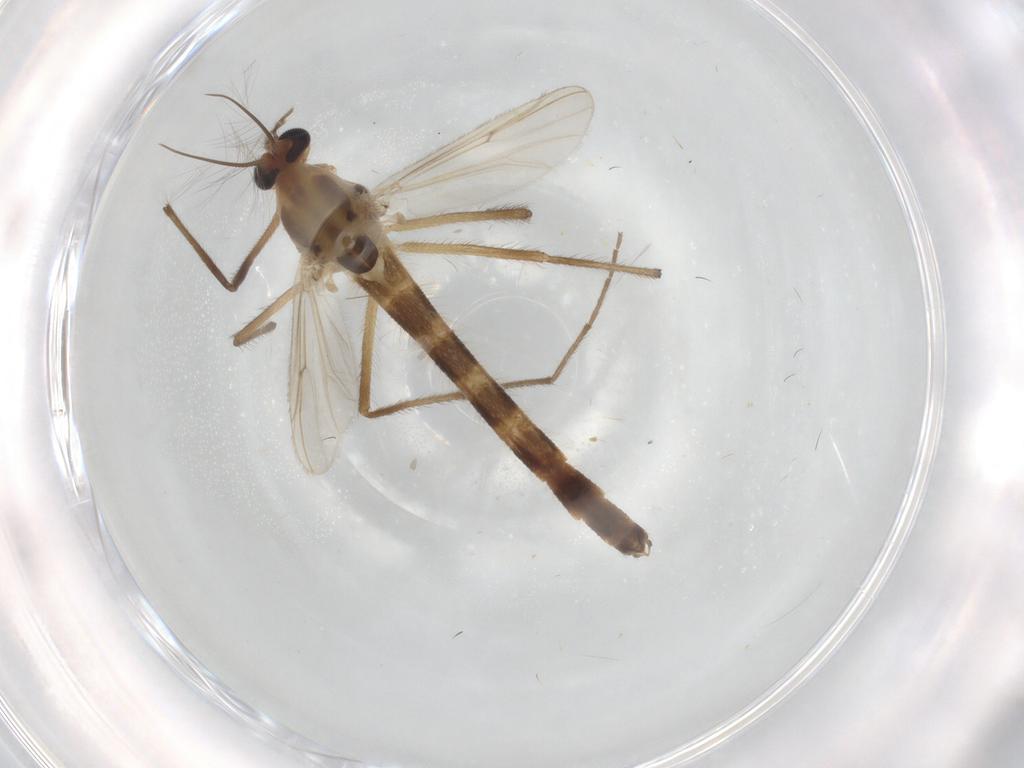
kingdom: Animalia
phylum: Arthropoda
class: Insecta
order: Diptera
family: Chironomidae
